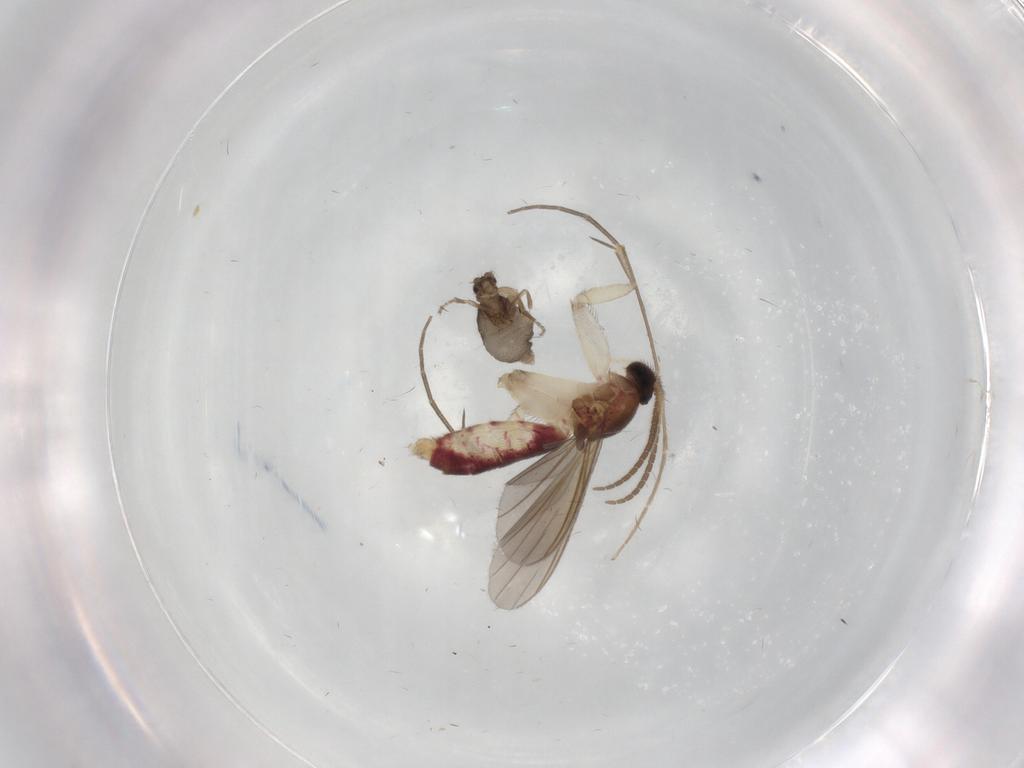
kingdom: Animalia
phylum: Arthropoda
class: Insecta
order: Diptera
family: Mycetophilidae
